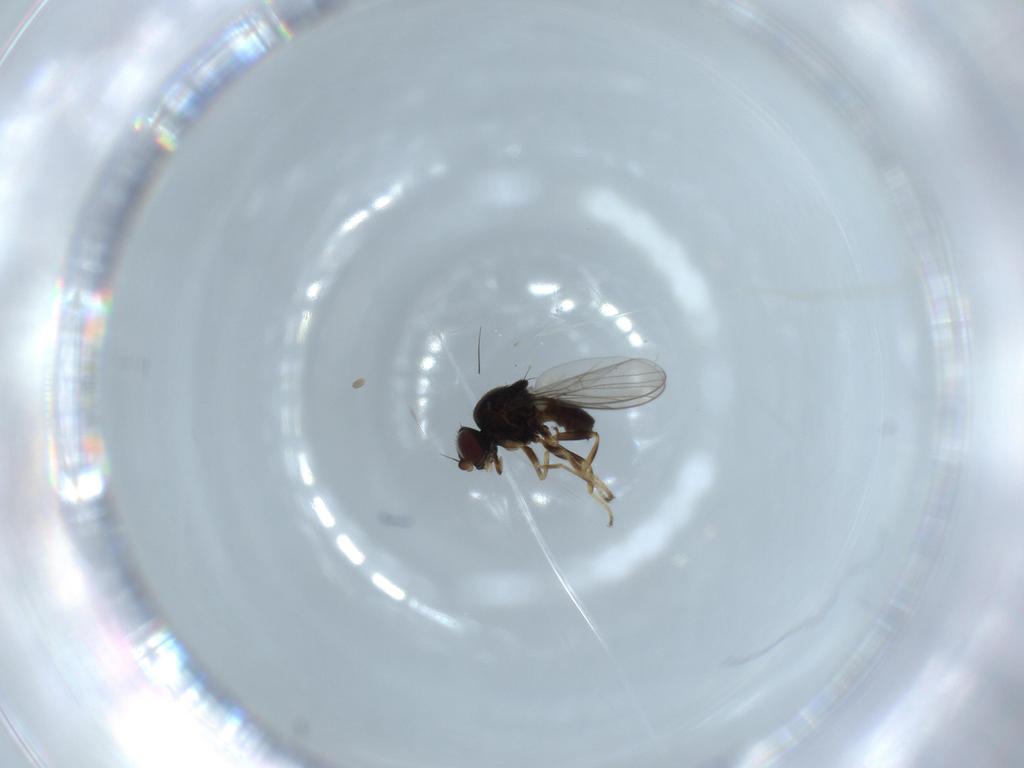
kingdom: Animalia
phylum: Arthropoda
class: Insecta
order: Diptera
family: Chloropidae
